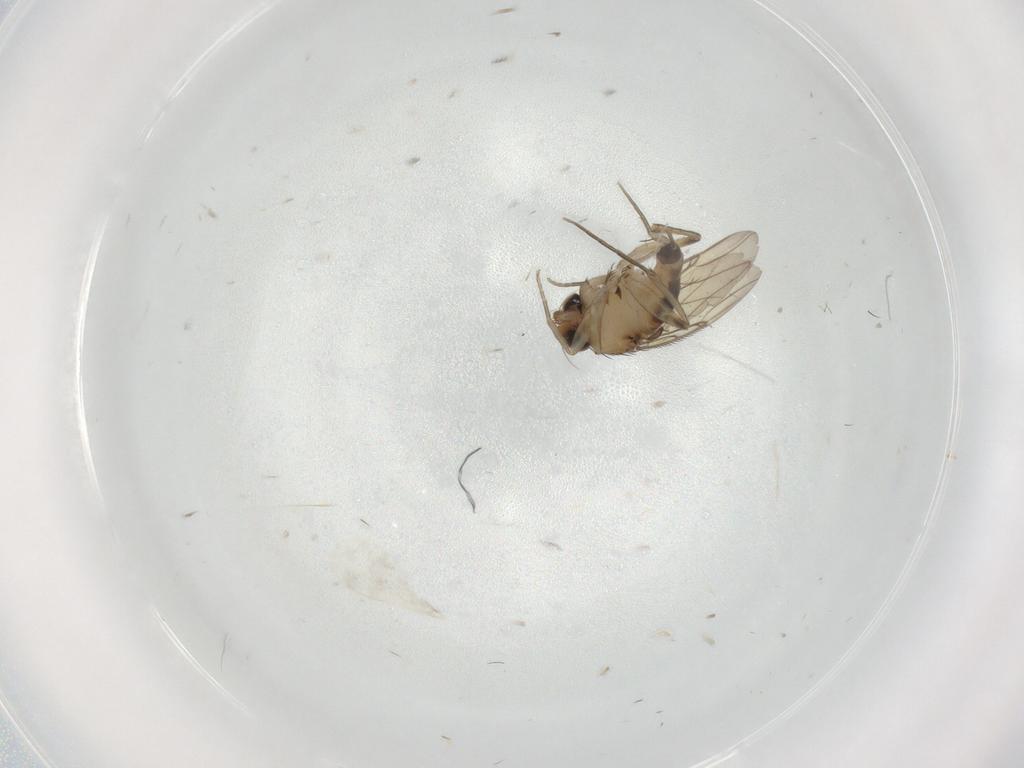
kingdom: Animalia
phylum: Arthropoda
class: Insecta
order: Diptera
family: Phoridae
